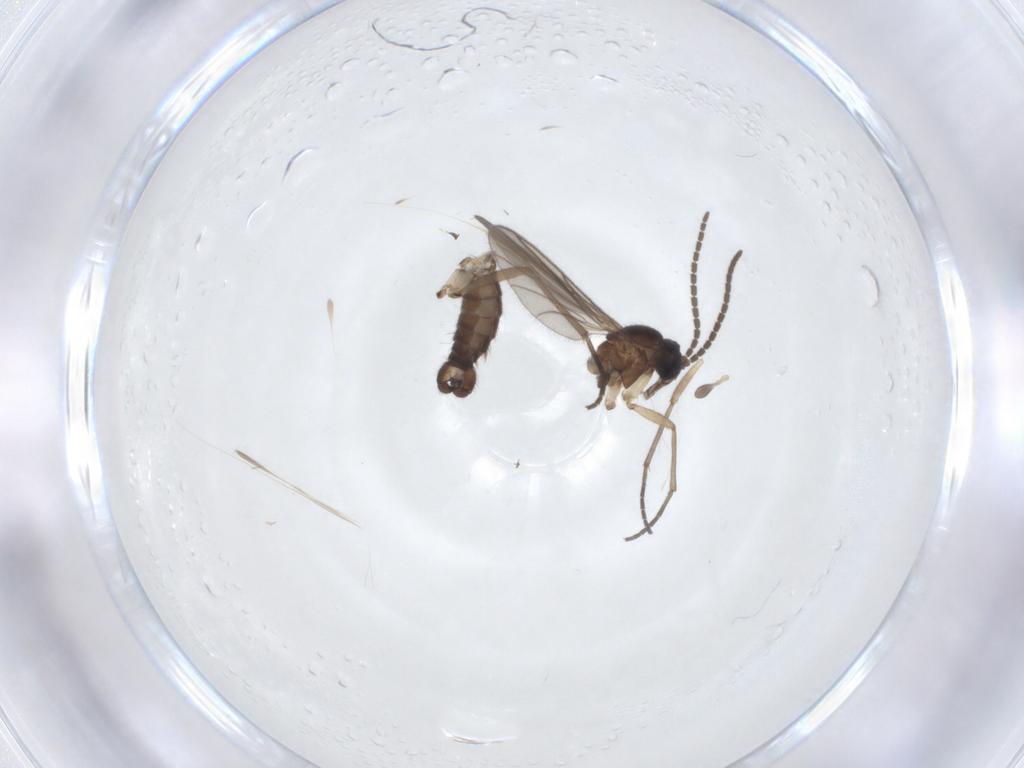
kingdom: Animalia
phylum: Arthropoda
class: Insecta
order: Diptera
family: Sciaridae
